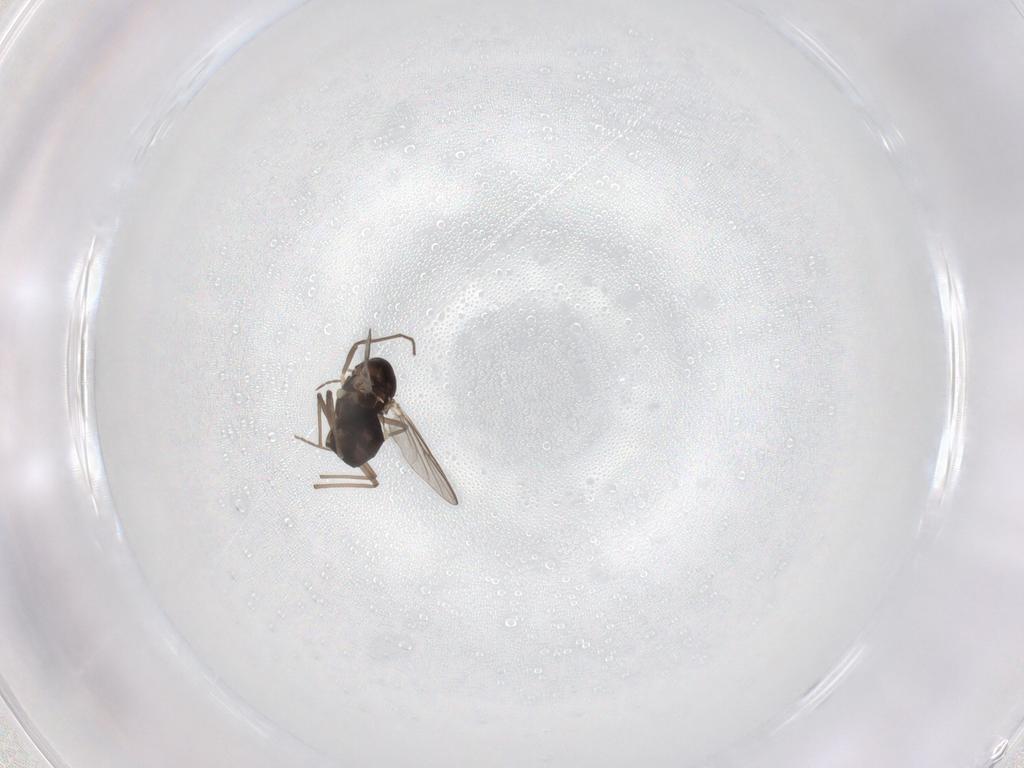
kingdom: Animalia
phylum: Arthropoda
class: Insecta
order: Diptera
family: Chironomidae
